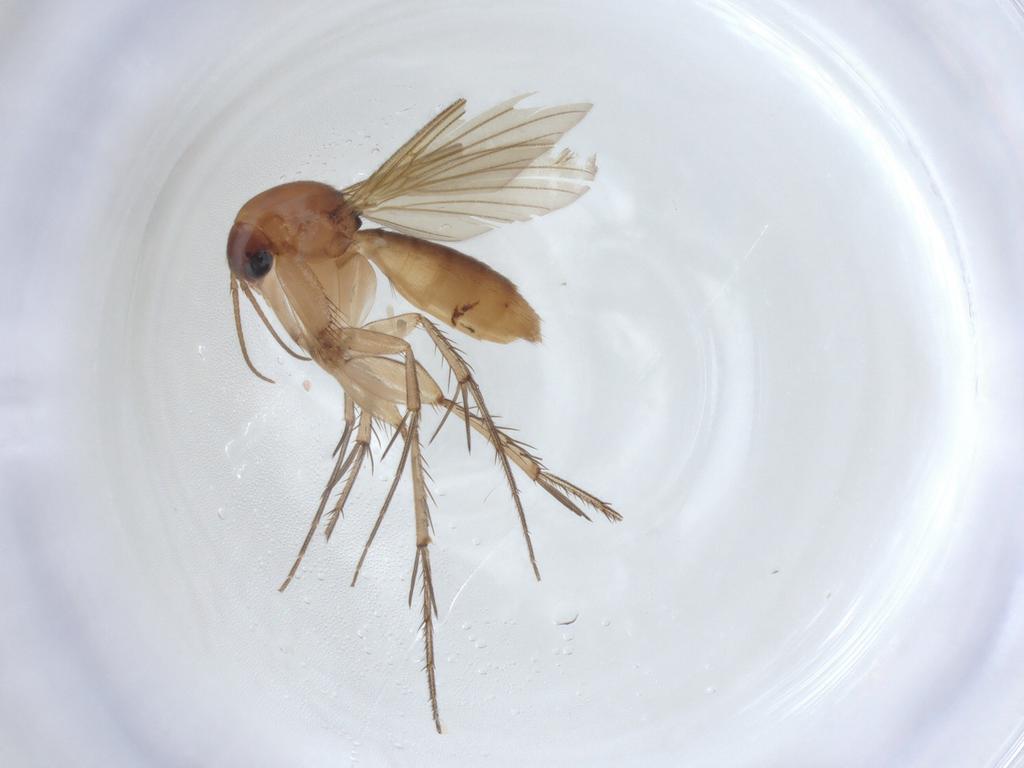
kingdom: Animalia
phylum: Arthropoda
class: Insecta
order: Diptera
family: Mycetophilidae
